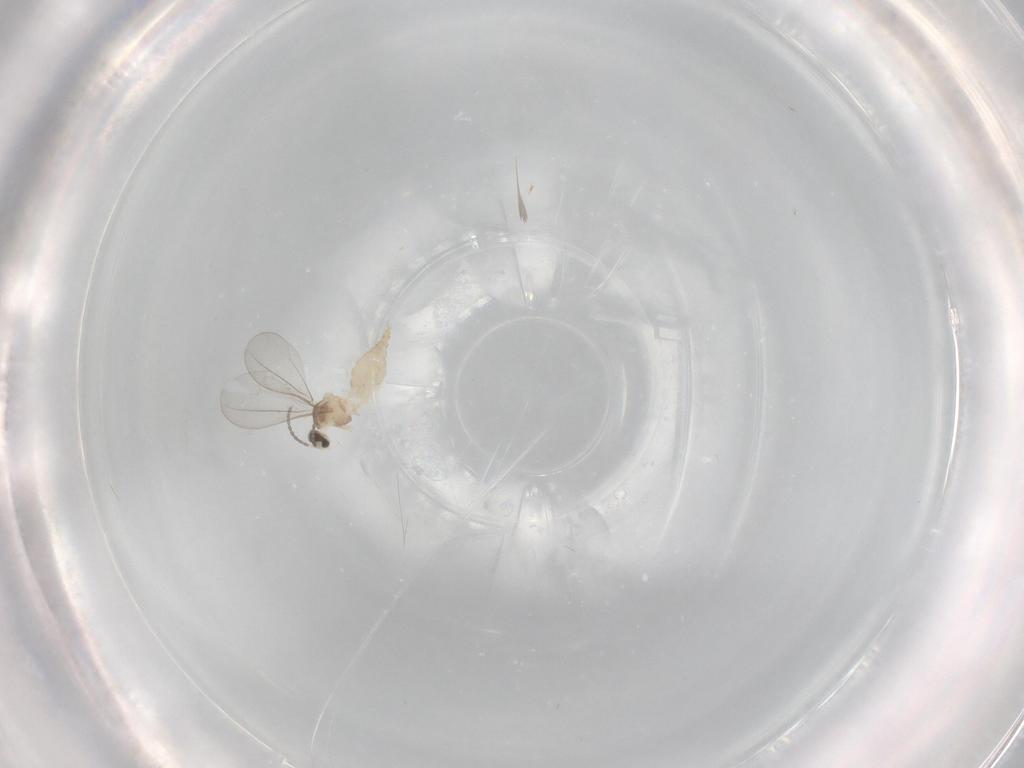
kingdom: Animalia
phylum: Arthropoda
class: Insecta
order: Diptera
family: Cecidomyiidae
